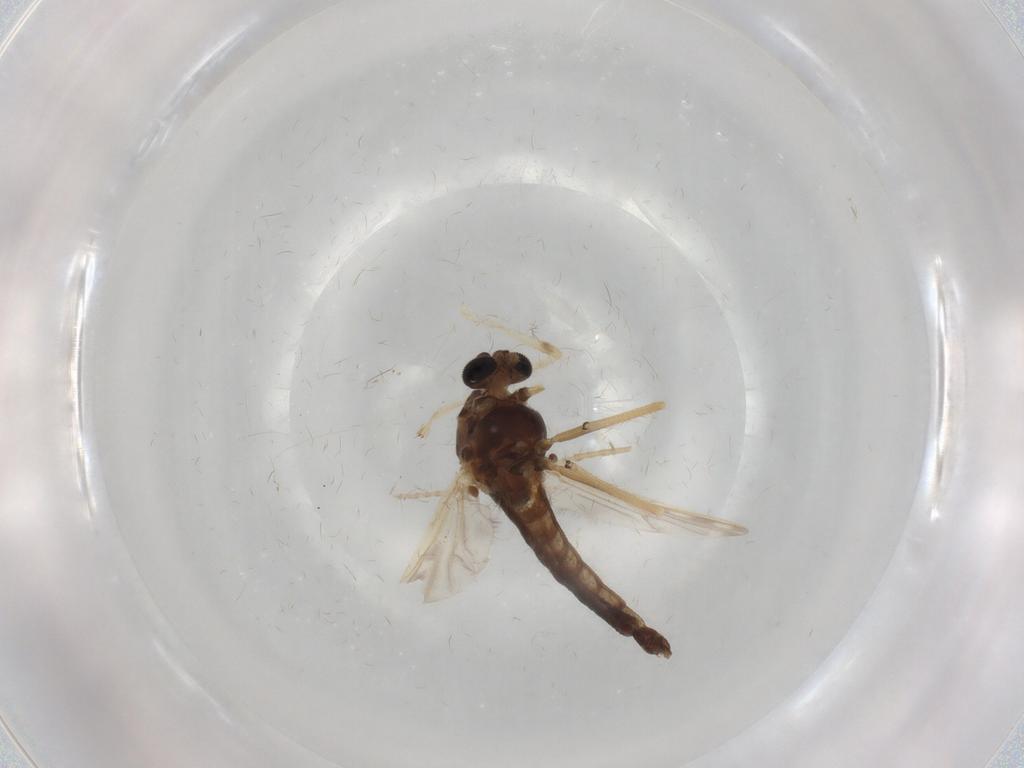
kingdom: Animalia
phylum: Arthropoda
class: Insecta
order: Diptera
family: Chironomidae
